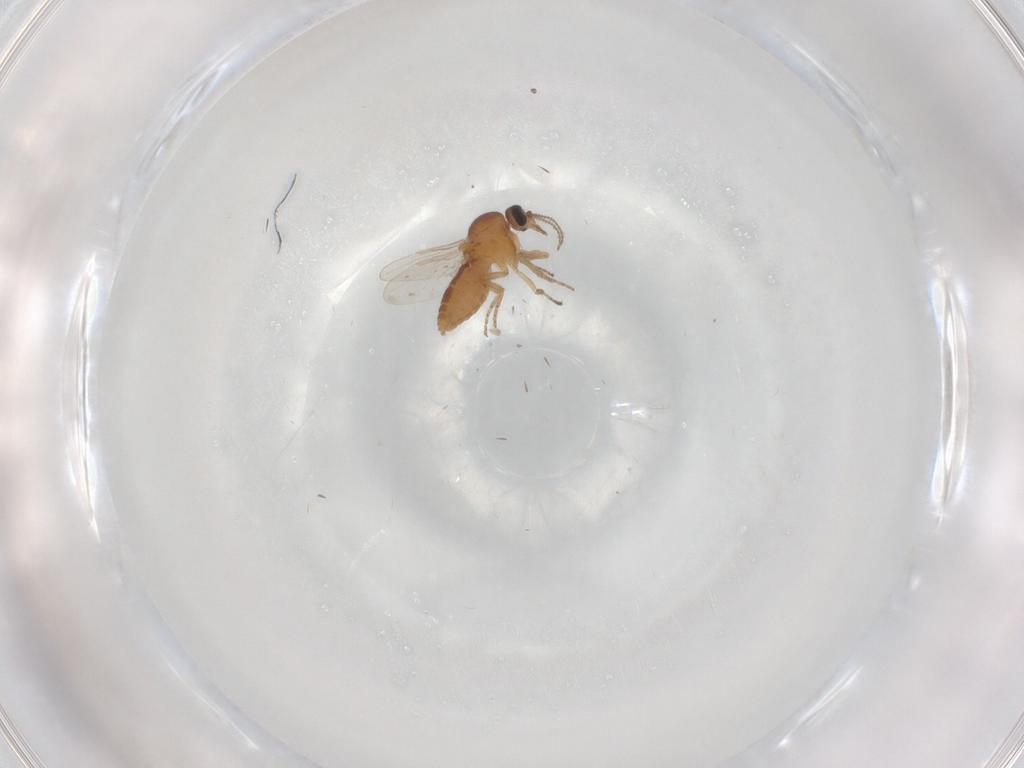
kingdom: Animalia
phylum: Arthropoda
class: Insecta
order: Diptera
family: Ceratopogonidae
